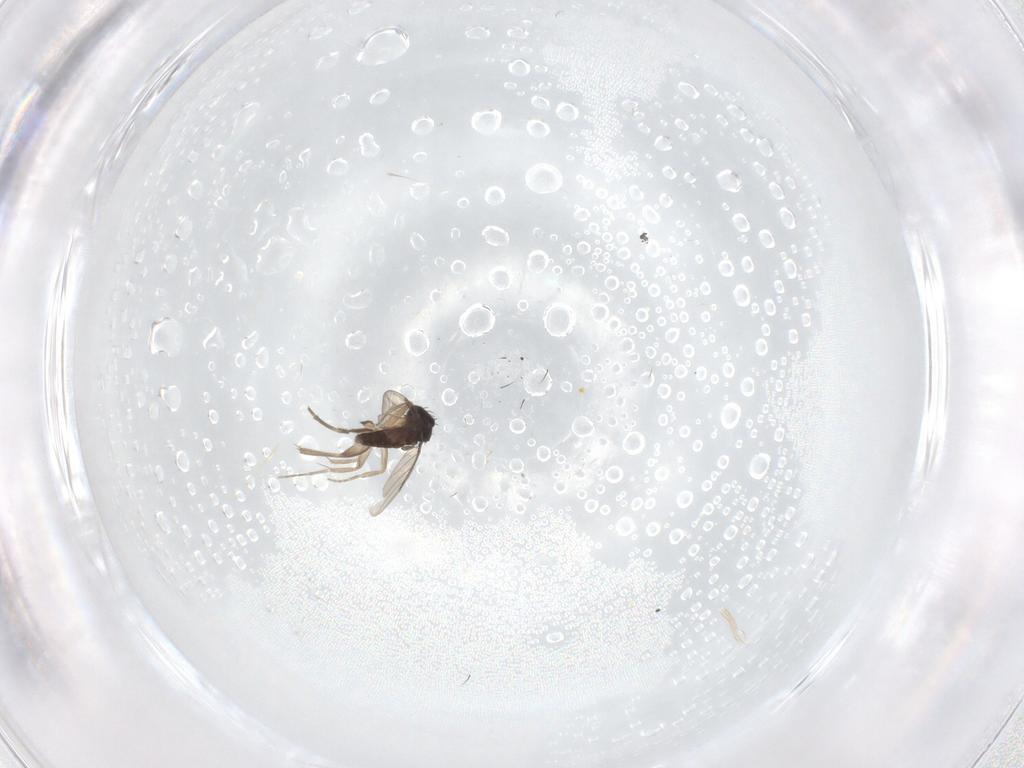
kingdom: Animalia
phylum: Arthropoda
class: Insecta
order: Diptera
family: Phoridae
